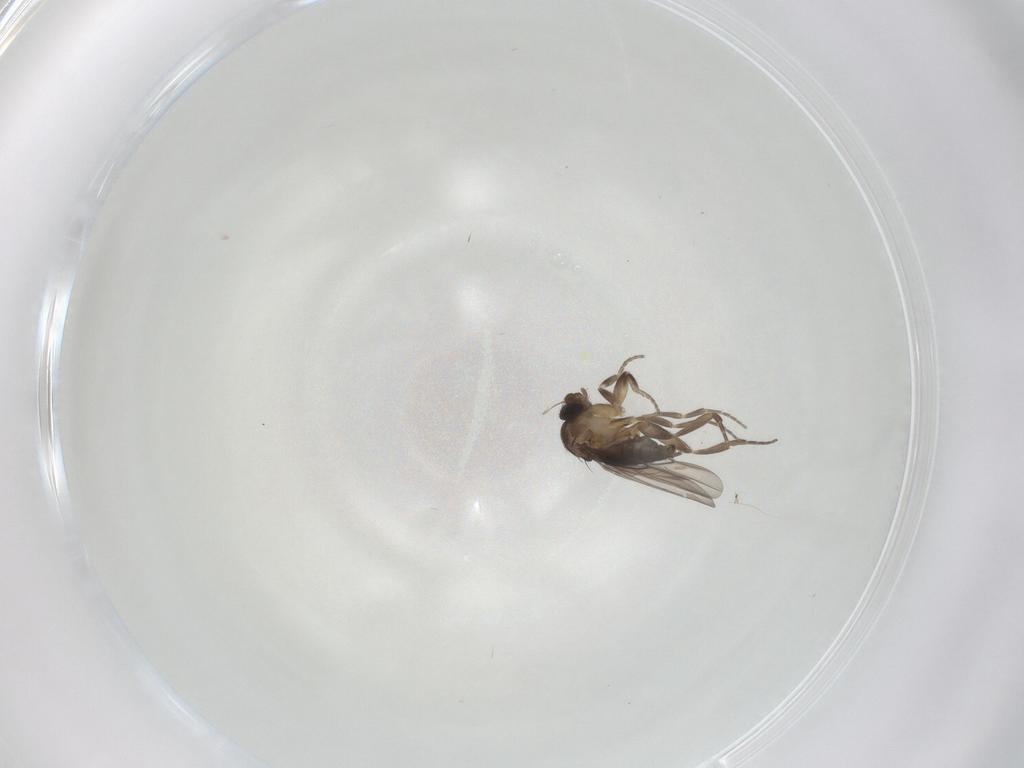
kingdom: Animalia
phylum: Arthropoda
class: Insecta
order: Diptera
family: Phoridae
